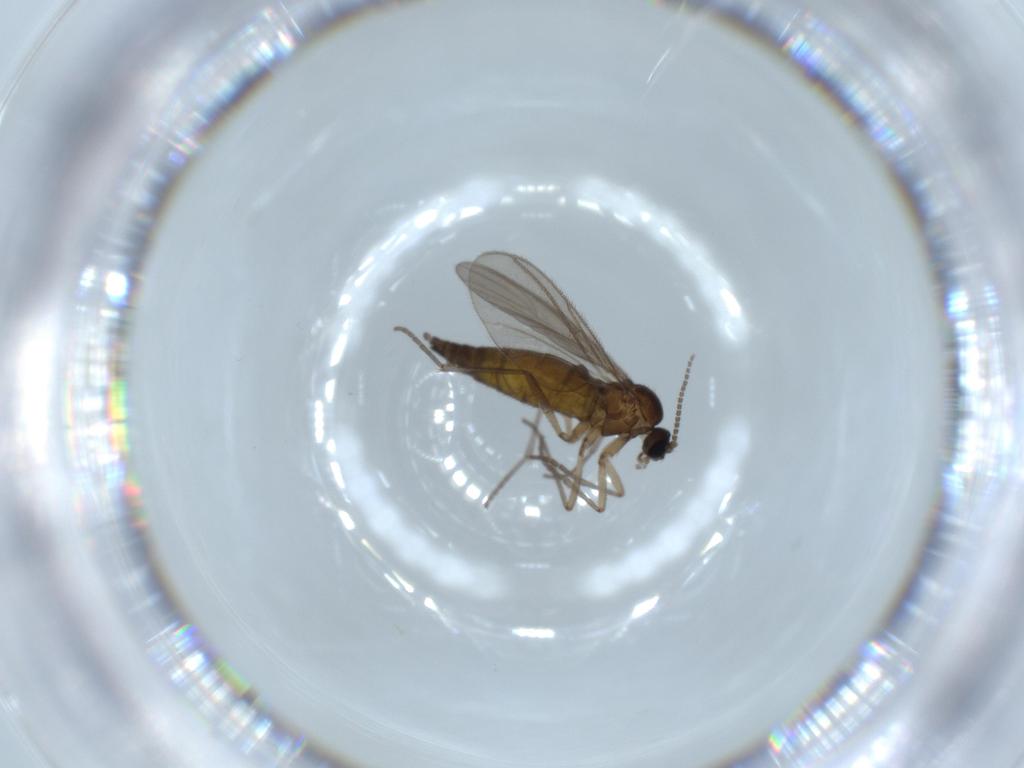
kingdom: Animalia
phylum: Arthropoda
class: Insecta
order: Diptera
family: Sciaridae
